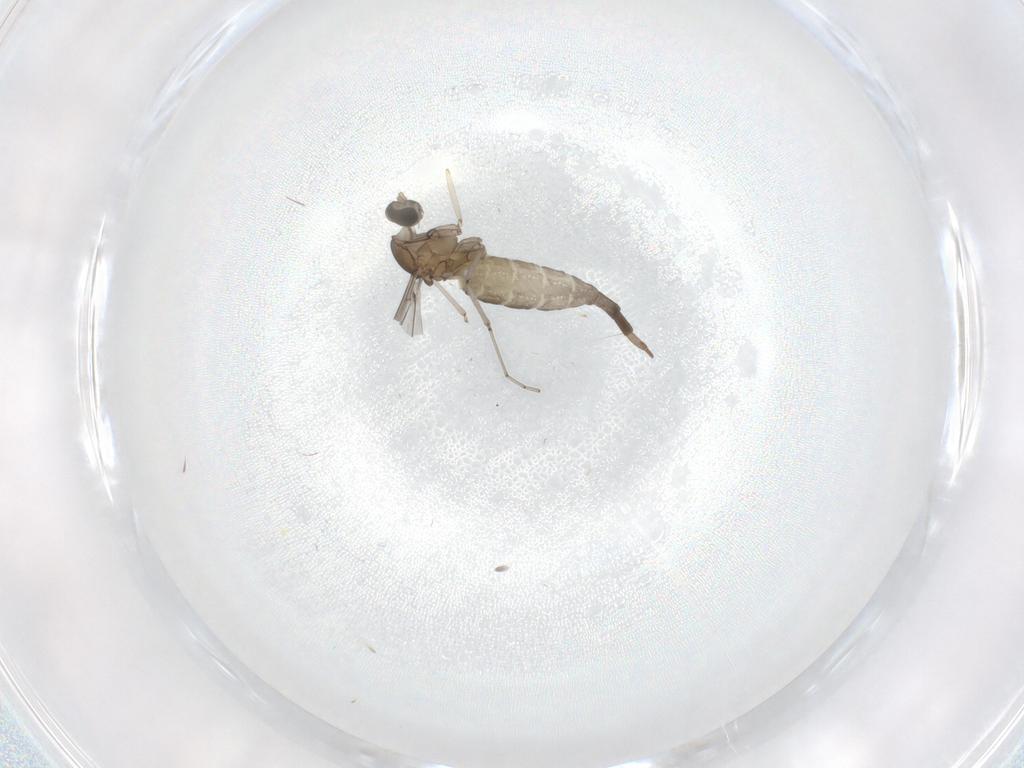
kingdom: Animalia
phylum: Arthropoda
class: Insecta
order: Diptera
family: Cecidomyiidae
